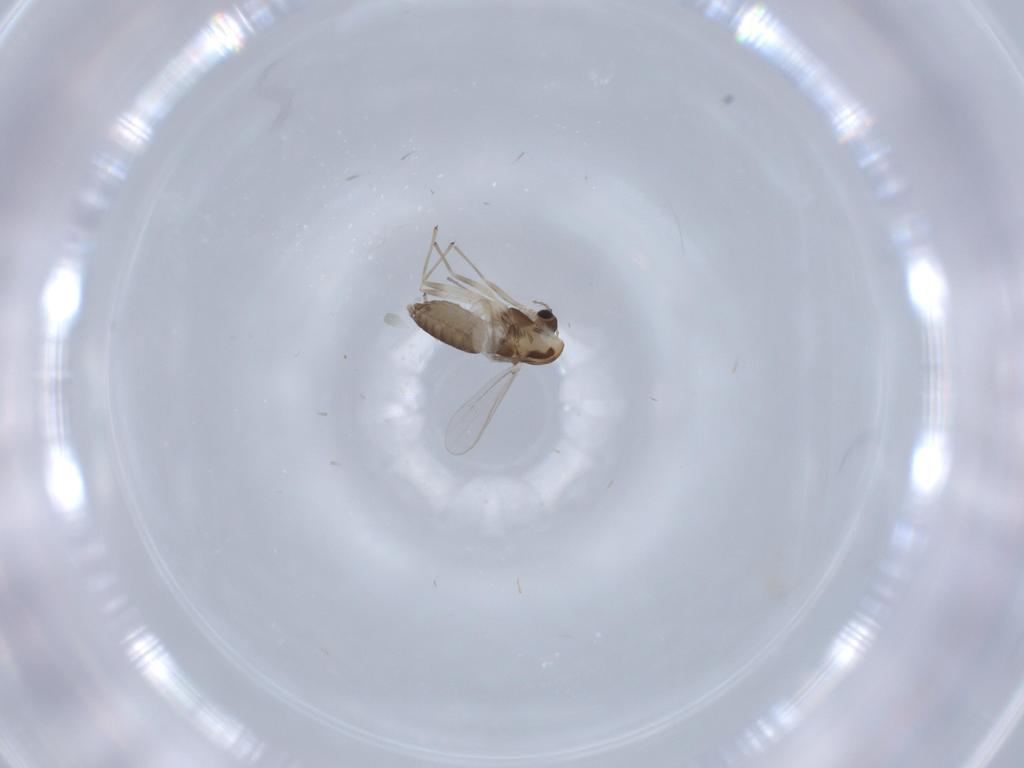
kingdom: Animalia
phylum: Arthropoda
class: Insecta
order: Diptera
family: Chironomidae
